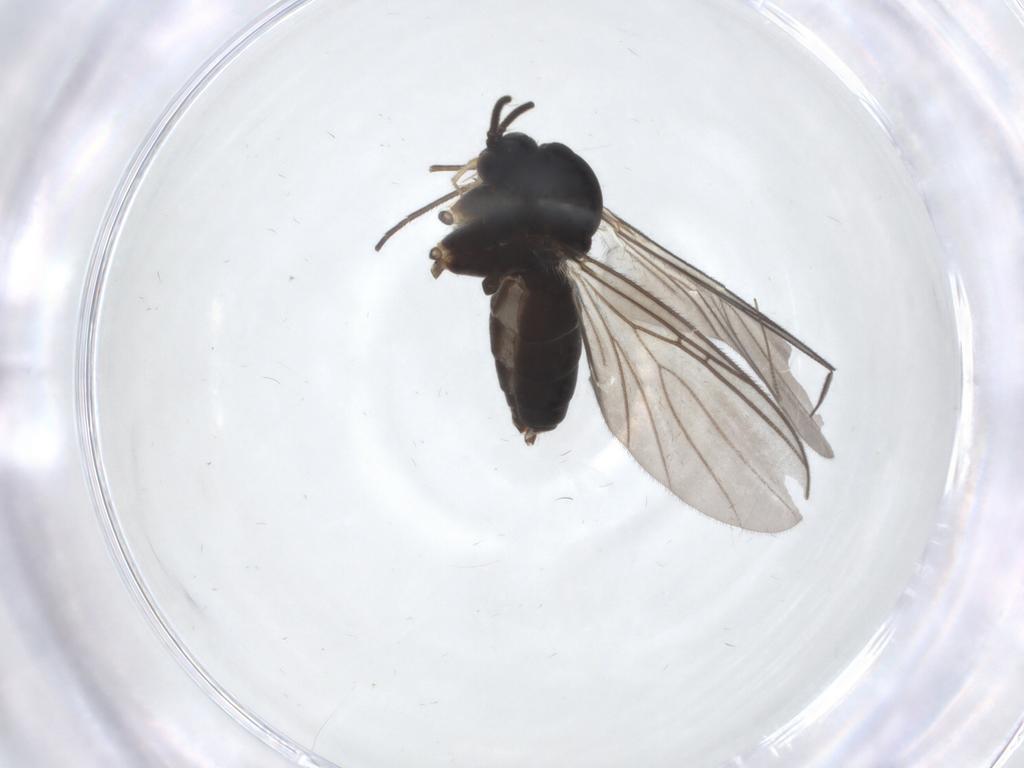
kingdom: Animalia
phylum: Arthropoda
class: Insecta
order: Diptera
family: Mycetophilidae
